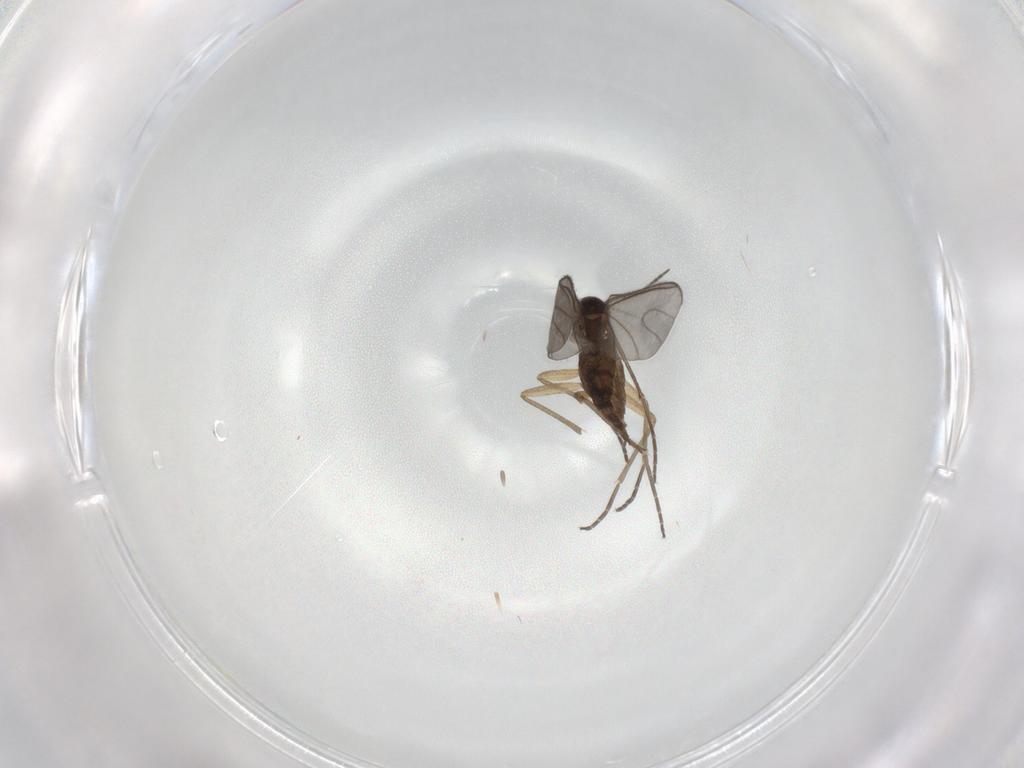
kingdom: Animalia
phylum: Arthropoda
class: Insecta
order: Diptera
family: Sciaridae
